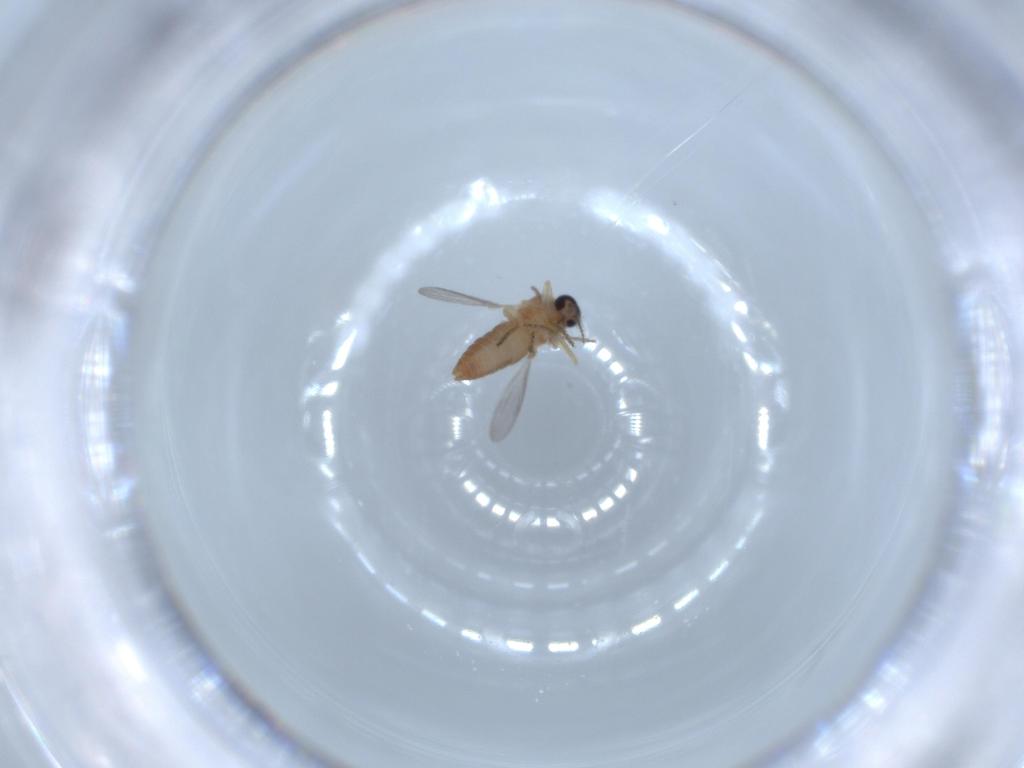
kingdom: Animalia
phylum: Arthropoda
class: Insecta
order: Diptera
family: Ceratopogonidae
